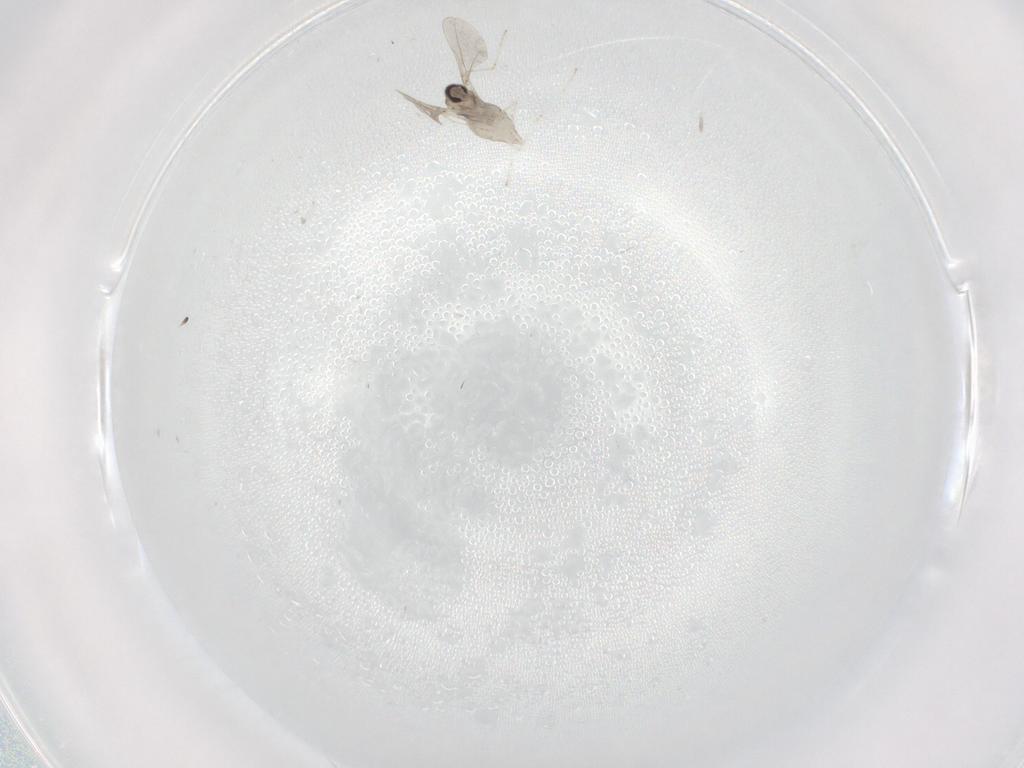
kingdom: Animalia
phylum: Arthropoda
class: Insecta
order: Diptera
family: Cecidomyiidae
